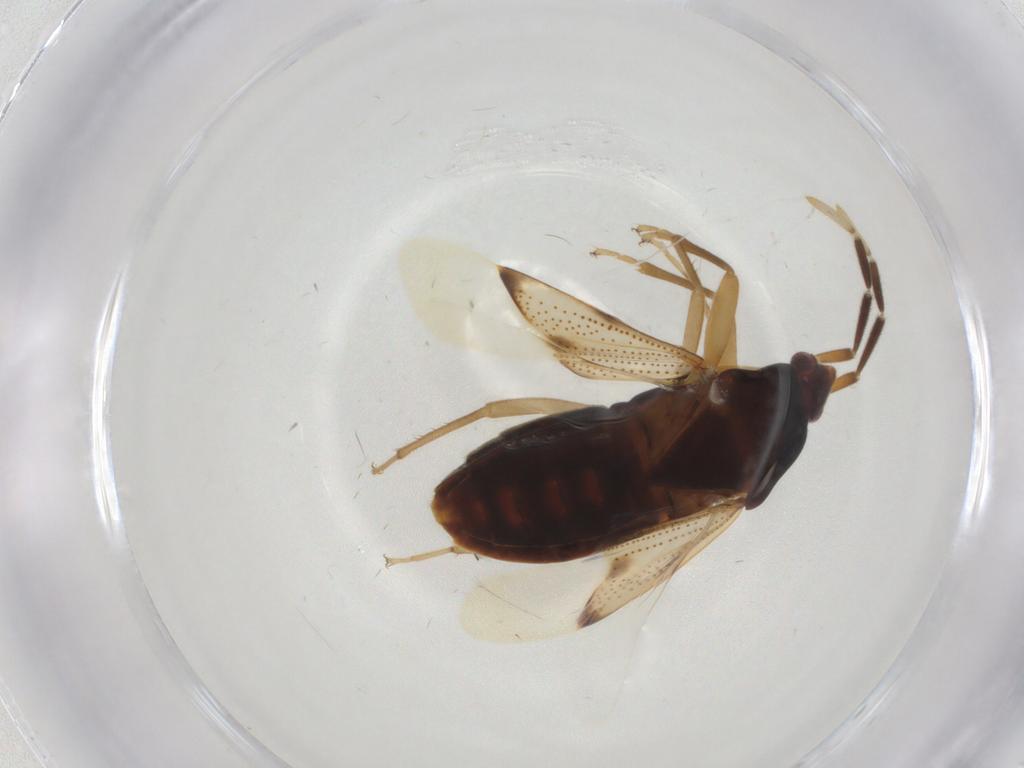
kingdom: Animalia
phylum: Arthropoda
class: Insecta
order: Hemiptera
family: Rhyparochromidae
